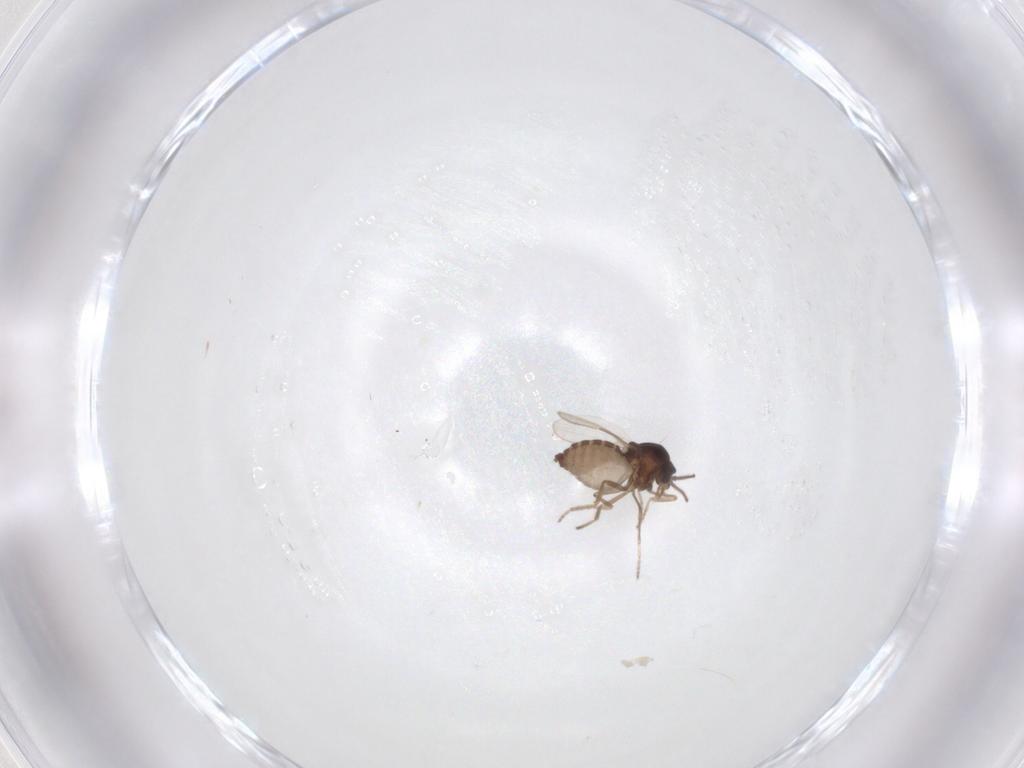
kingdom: Animalia
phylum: Arthropoda
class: Insecta
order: Diptera
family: Ceratopogonidae
